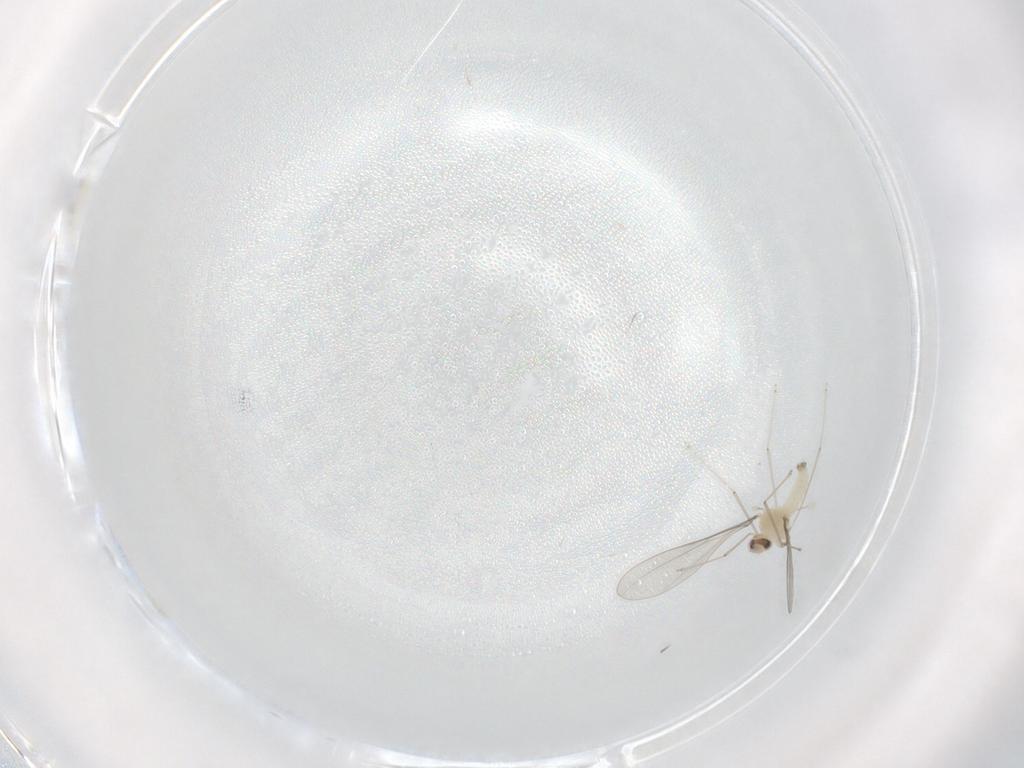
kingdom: Animalia
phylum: Arthropoda
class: Insecta
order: Diptera
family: Cecidomyiidae
